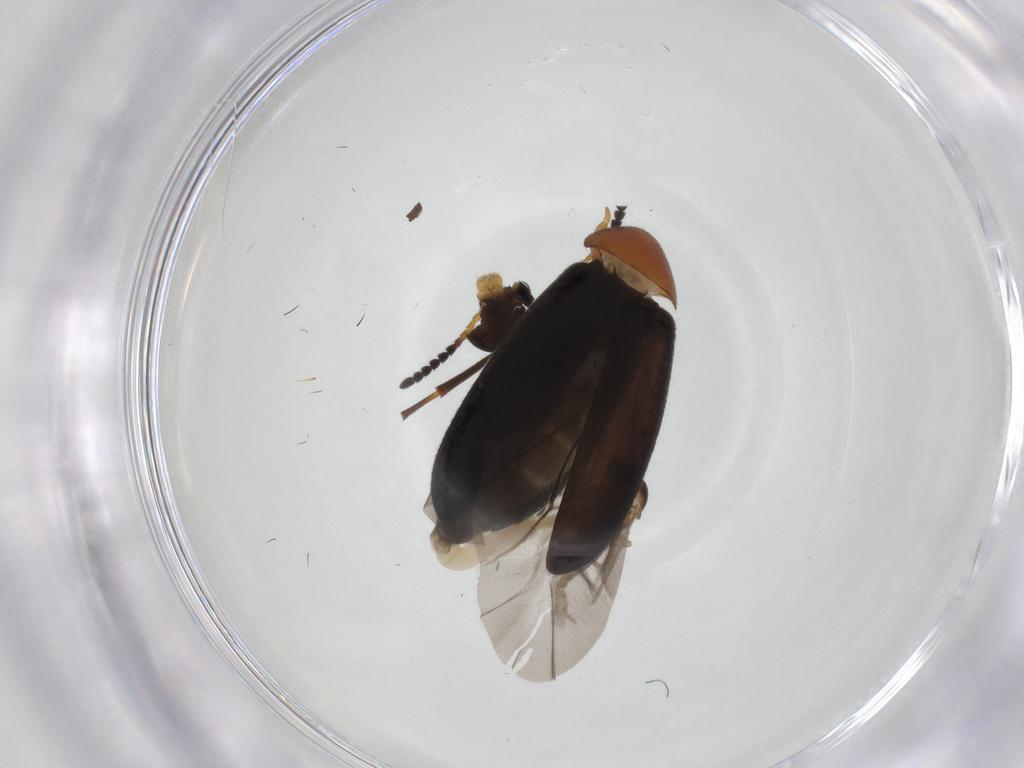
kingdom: Animalia
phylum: Arthropoda
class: Insecta
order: Coleoptera
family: Scraptiidae
